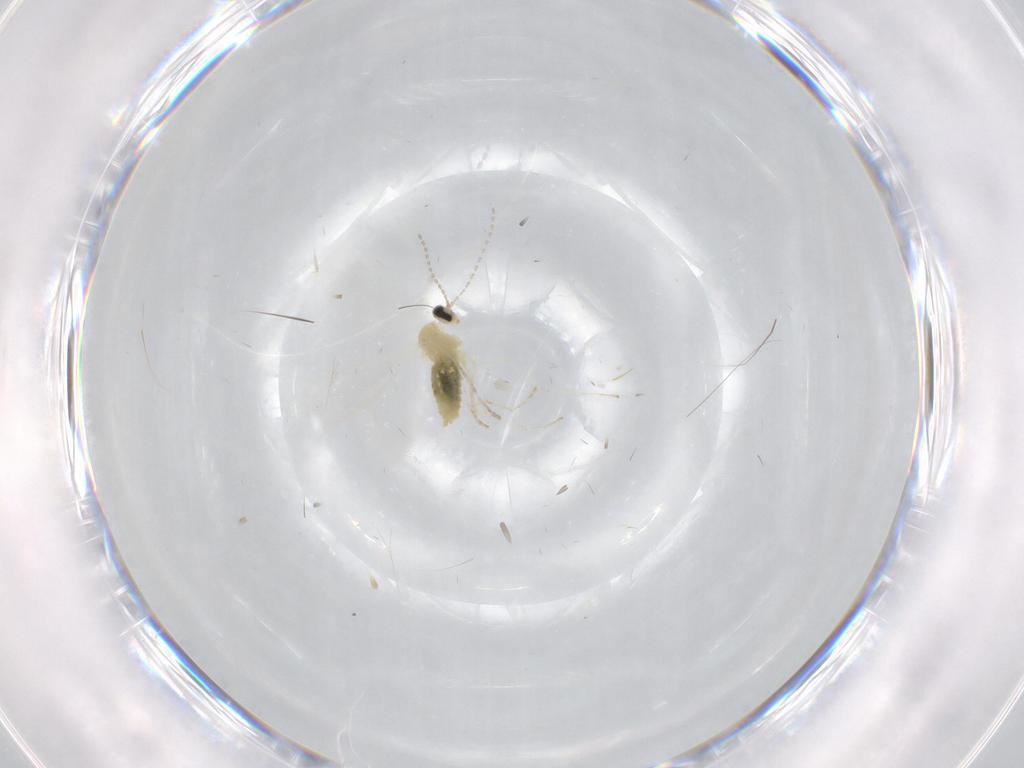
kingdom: Animalia
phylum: Arthropoda
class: Insecta
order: Diptera
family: Cecidomyiidae
